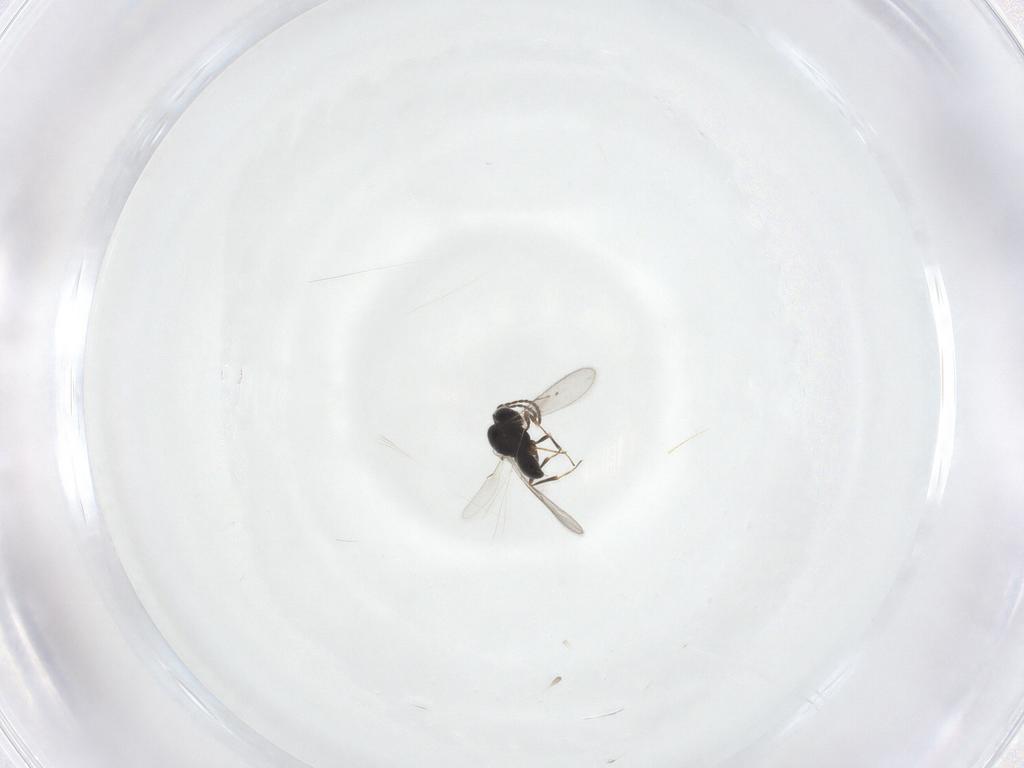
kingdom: Animalia
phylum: Arthropoda
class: Insecta
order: Hymenoptera
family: Scelionidae
